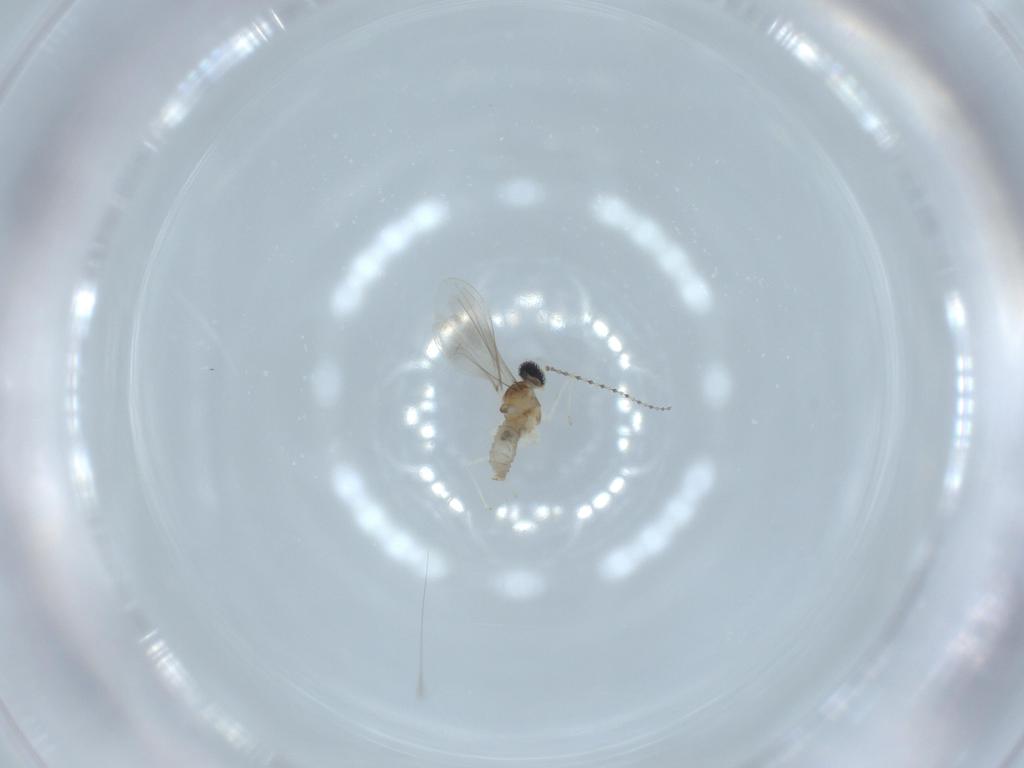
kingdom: Animalia
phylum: Arthropoda
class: Insecta
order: Diptera
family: Cecidomyiidae
